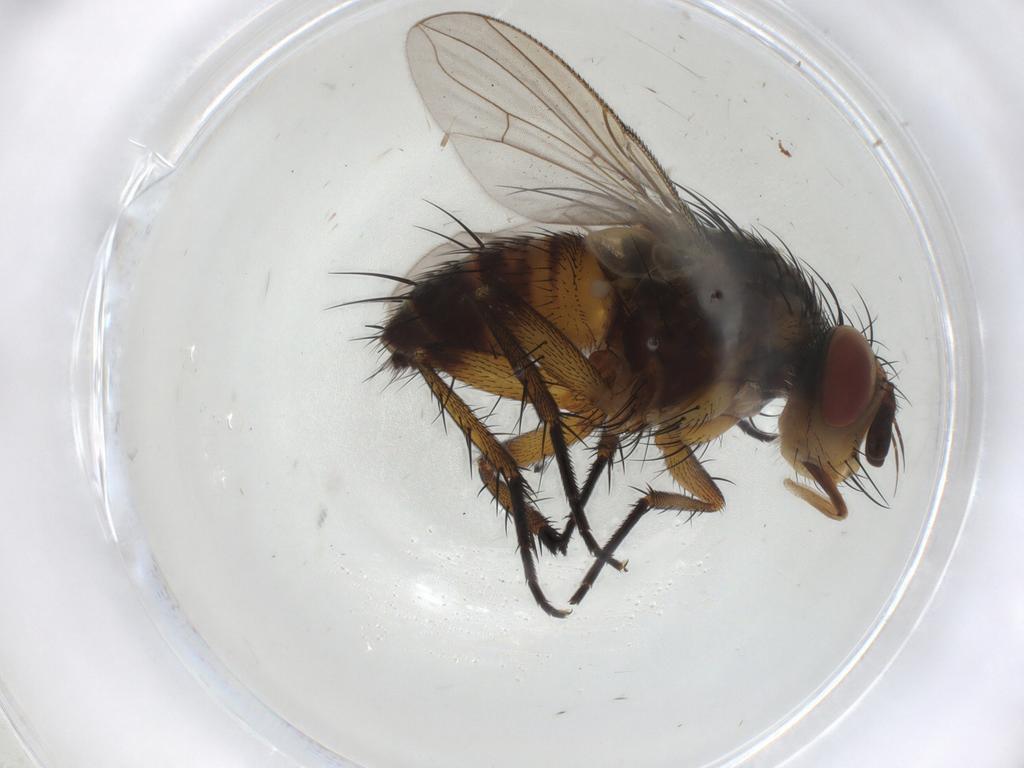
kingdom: Animalia
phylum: Arthropoda
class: Insecta
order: Diptera
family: Tachinidae
